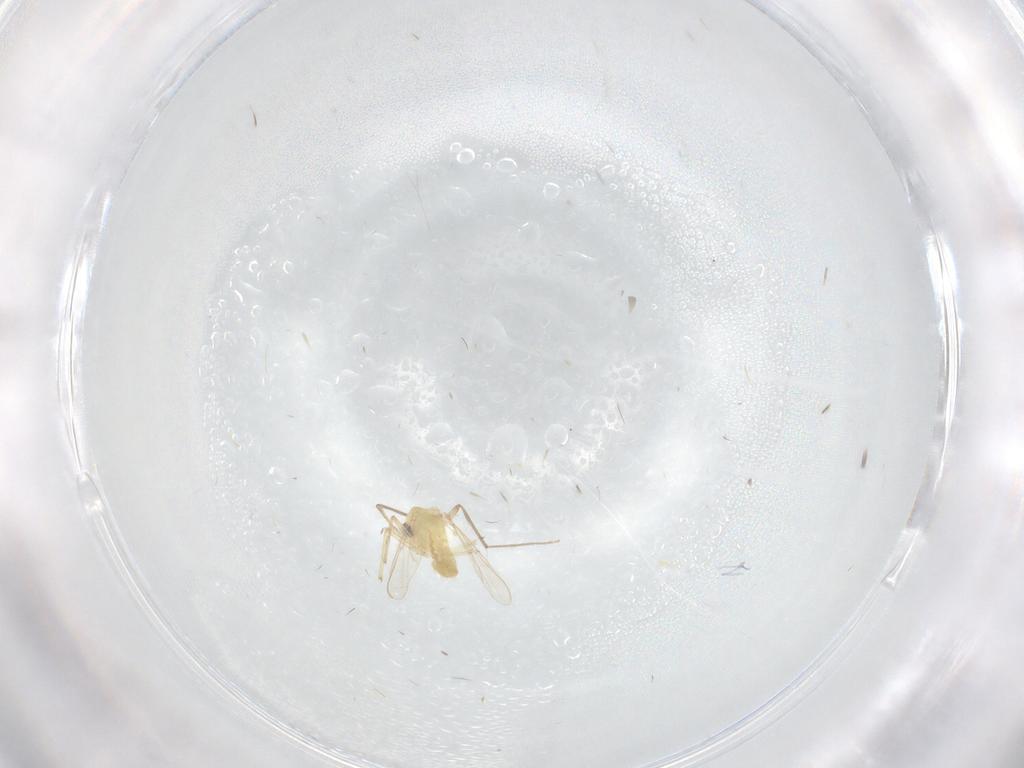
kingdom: Animalia
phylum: Arthropoda
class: Insecta
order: Diptera
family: Chironomidae
